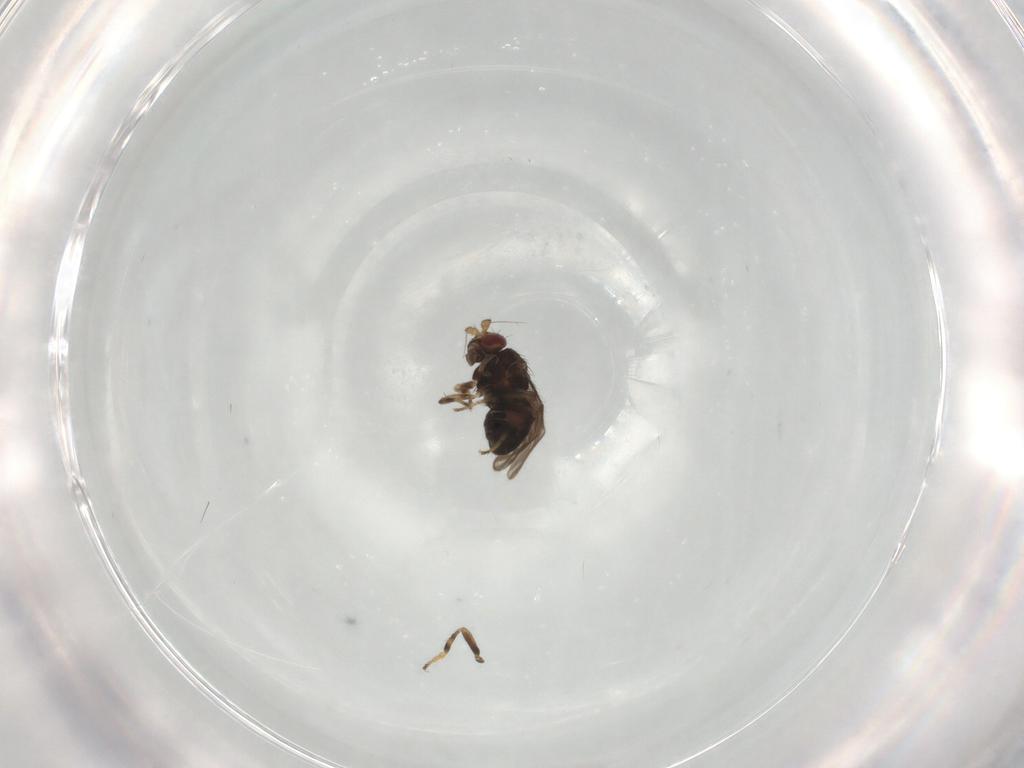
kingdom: Animalia
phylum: Arthropoda
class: Insecta
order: Diptera
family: Sphaeroceridae
